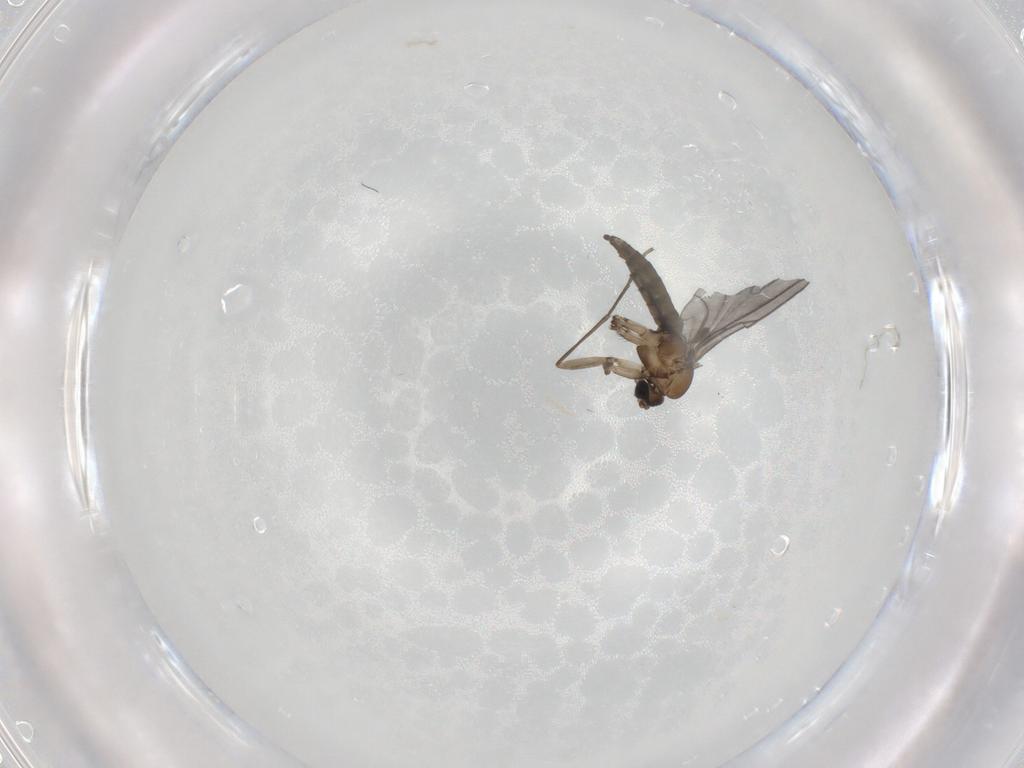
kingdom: Animalia
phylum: Arthropoda
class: Insecta
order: Diptera
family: Sciaridae
